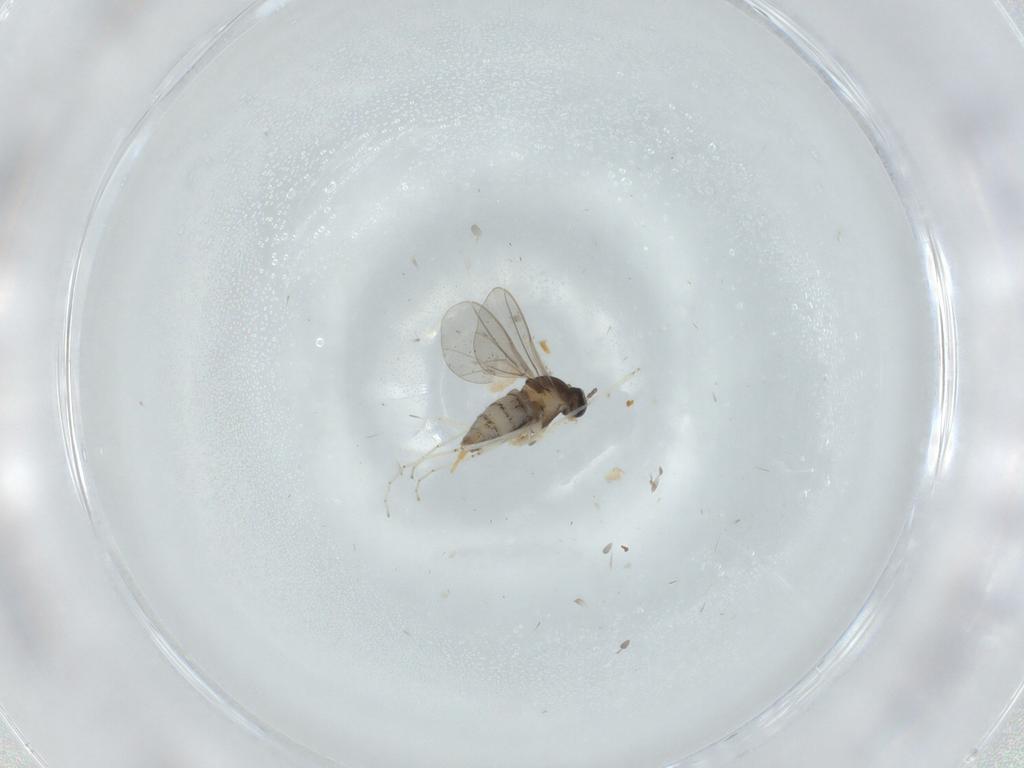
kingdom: Animalia
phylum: Arthropoda
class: Insecta
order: Diptera
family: Cecidomyiidae
